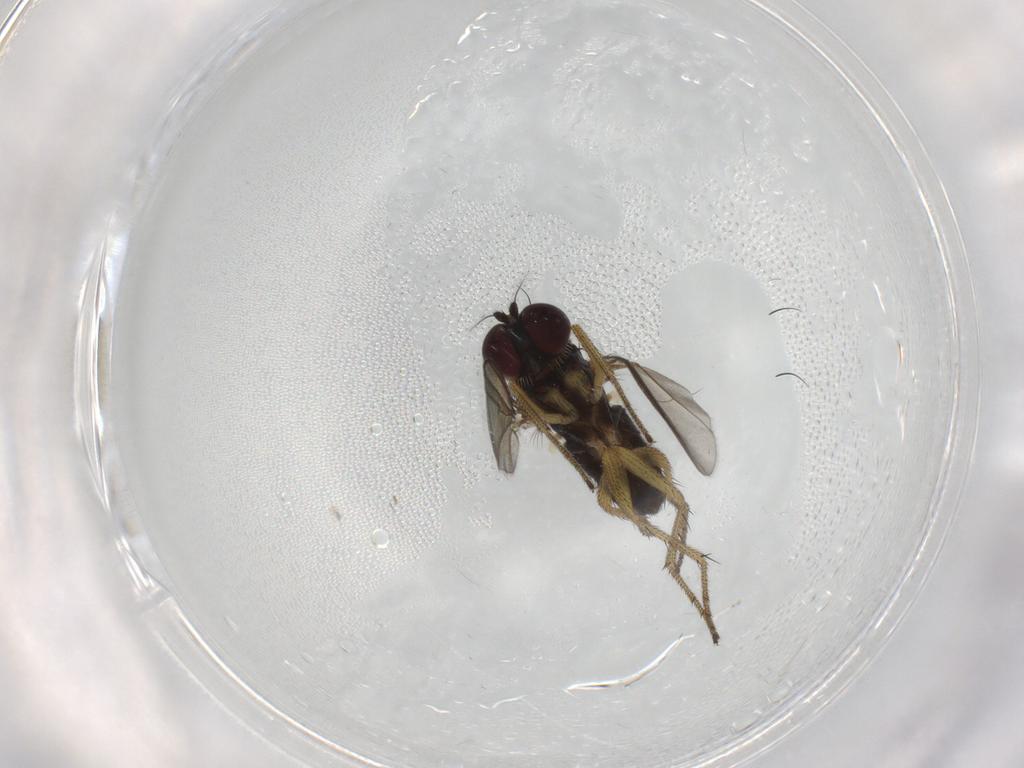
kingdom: Animalia
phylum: Arthropoda
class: Insecta
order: Diptera
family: Dolichopodidae
